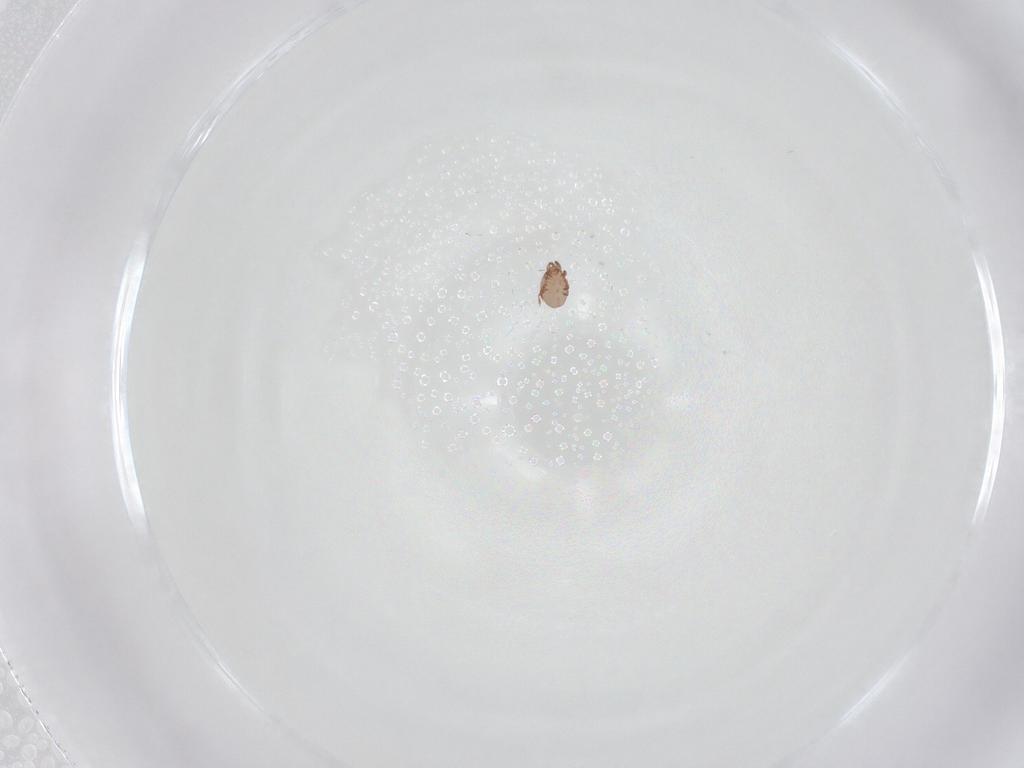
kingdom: Animalia
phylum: Arthropoda
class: Arachnida
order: Sarcoptiformes
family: Eremaeidae
